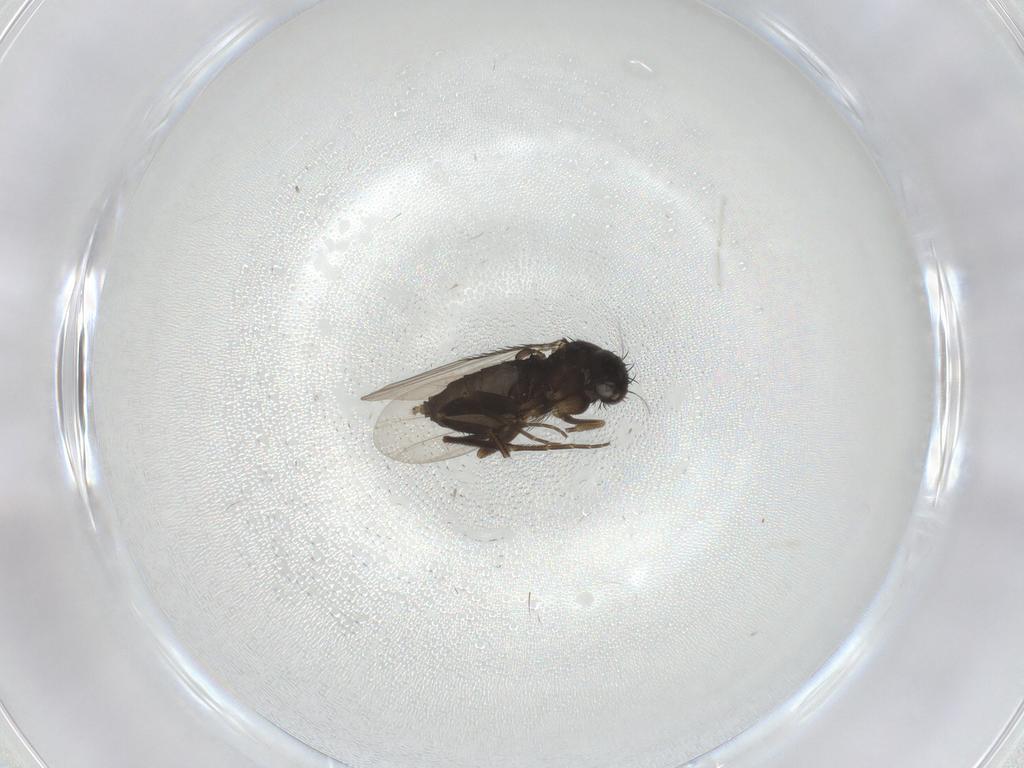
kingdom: Animalia
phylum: Arthropoda
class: Insecta
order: Diptera
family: Phoridae
